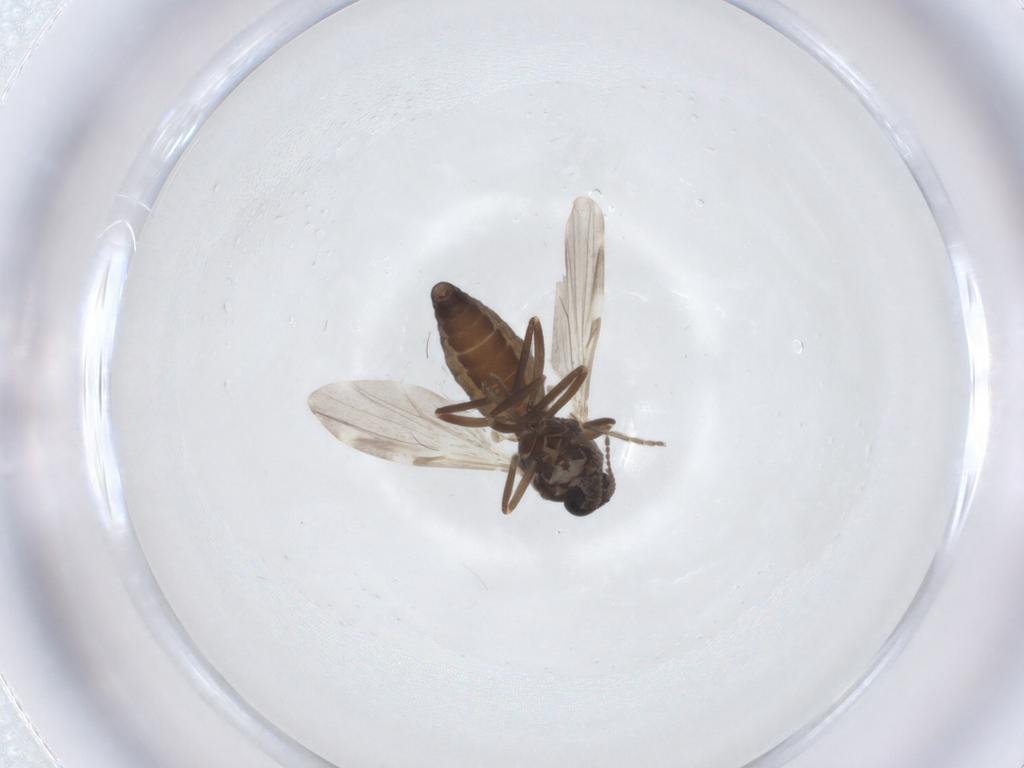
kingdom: Animalia
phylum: Arthropoda
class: Insecta
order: Diptera
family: Ceratopogonidae
